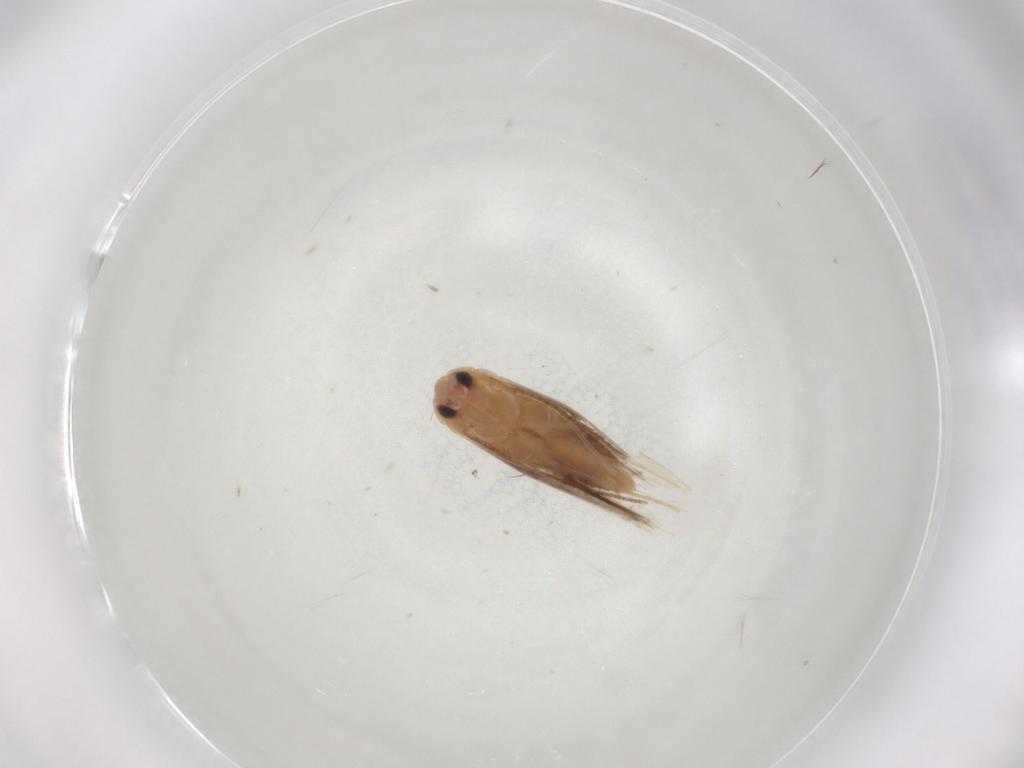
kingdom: Animalia
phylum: Arthropoda
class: Insecta
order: Lepidoptera
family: Bucculatricidae
